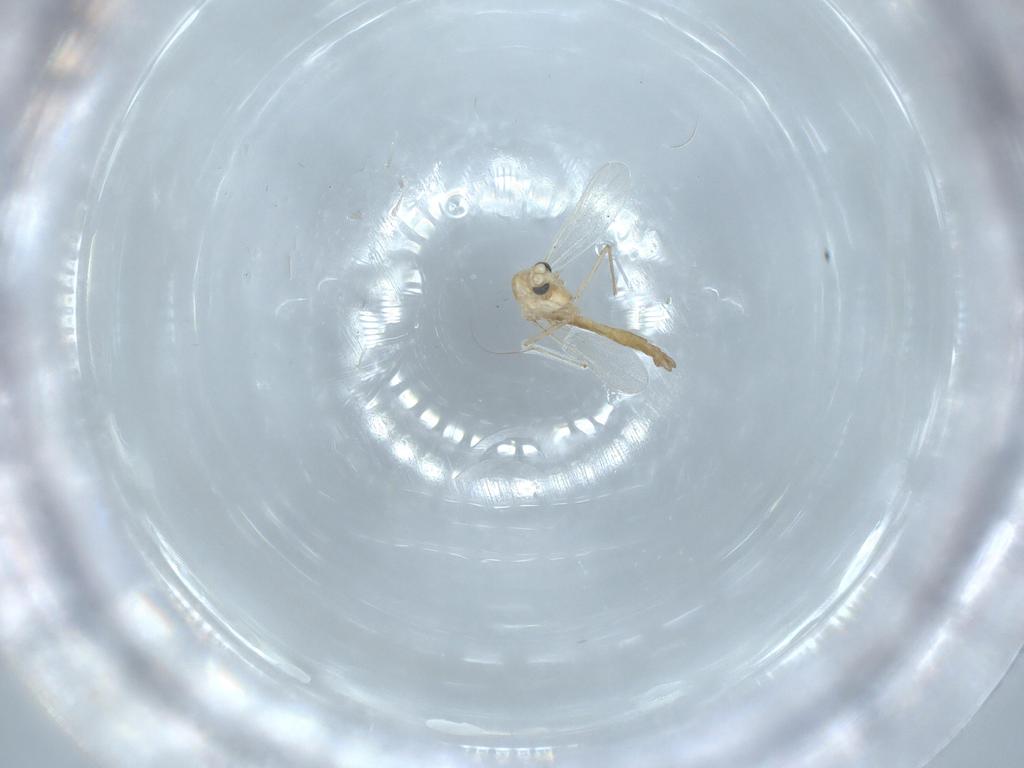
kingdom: Animalia
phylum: Arthropoda
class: Insecta
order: Diptera
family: Chironomidae
